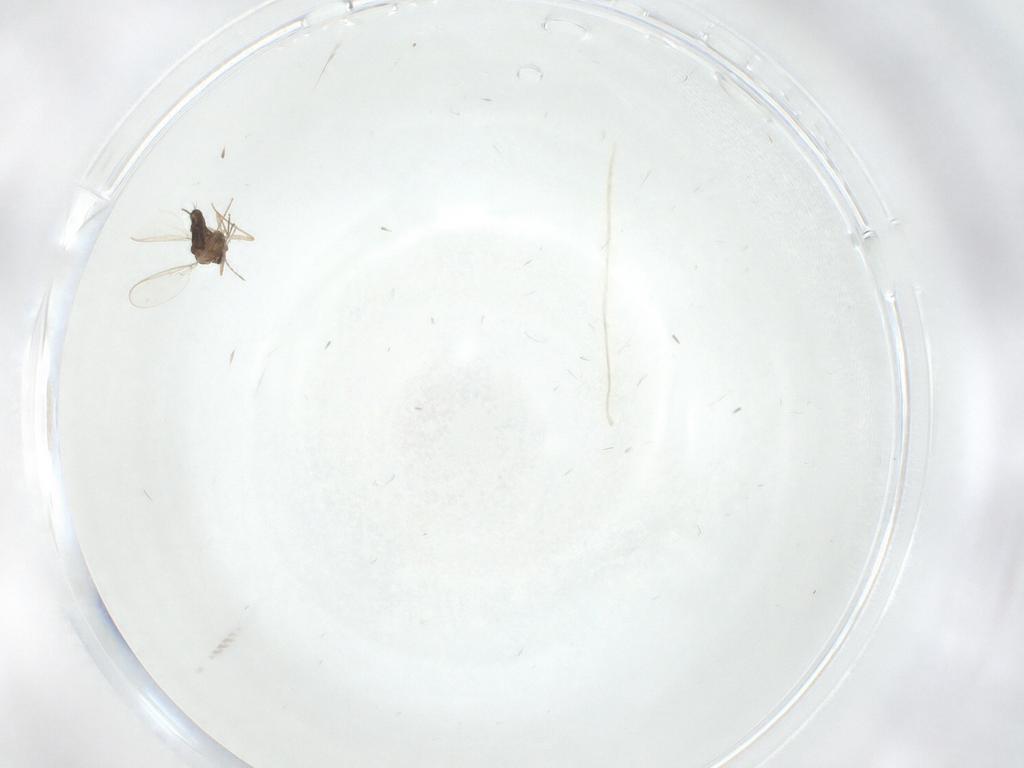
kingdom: Animalia
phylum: Arthropoda
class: Insecta
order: Diptera
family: Chironomidae
